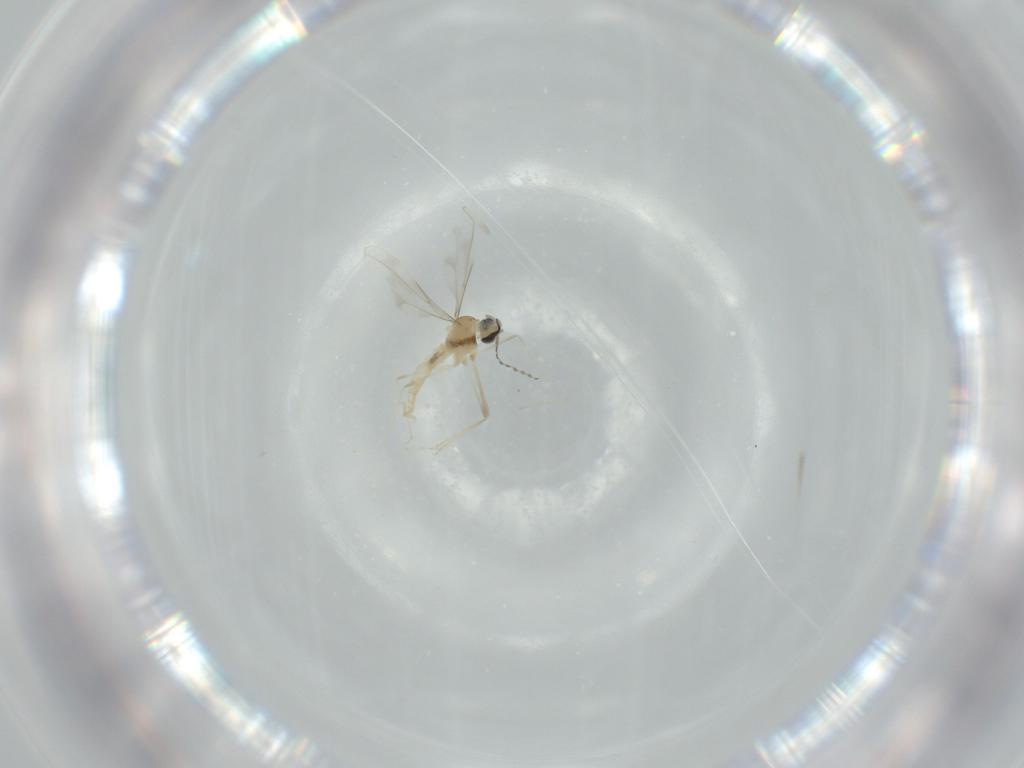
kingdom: Animalia
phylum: Arthropoda
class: Insecta
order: Diptera
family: Cecidomyiidae
